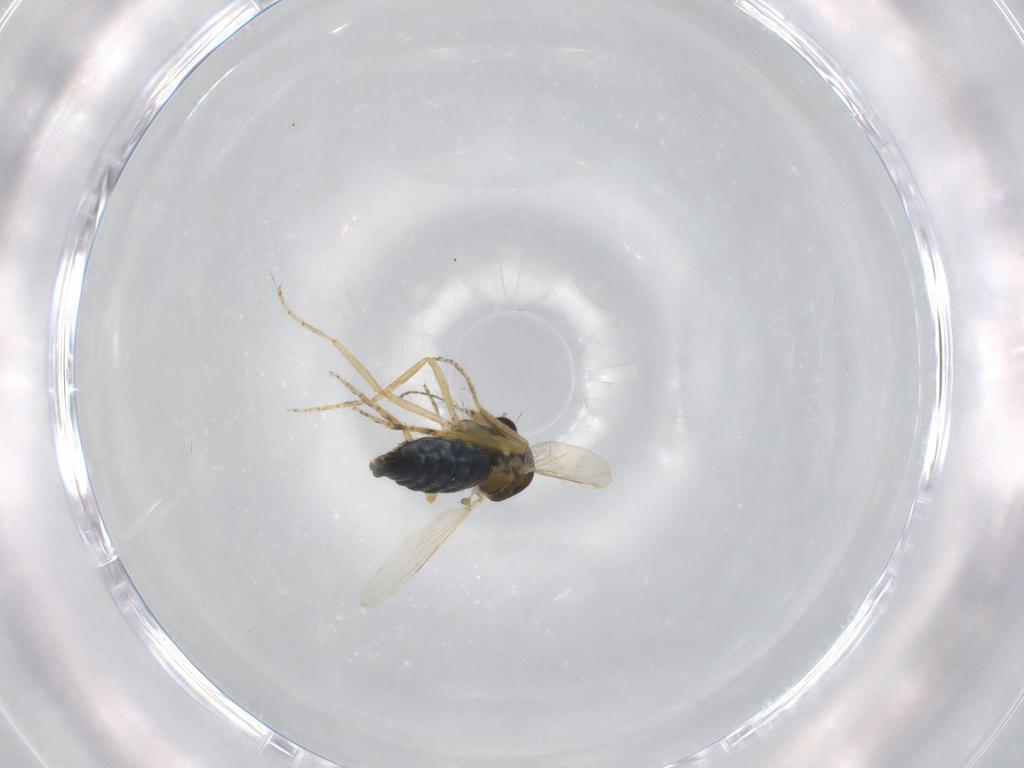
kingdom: Animalia
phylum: Arthropoda
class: Insecta
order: Diptera
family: Ceratopogonidae
